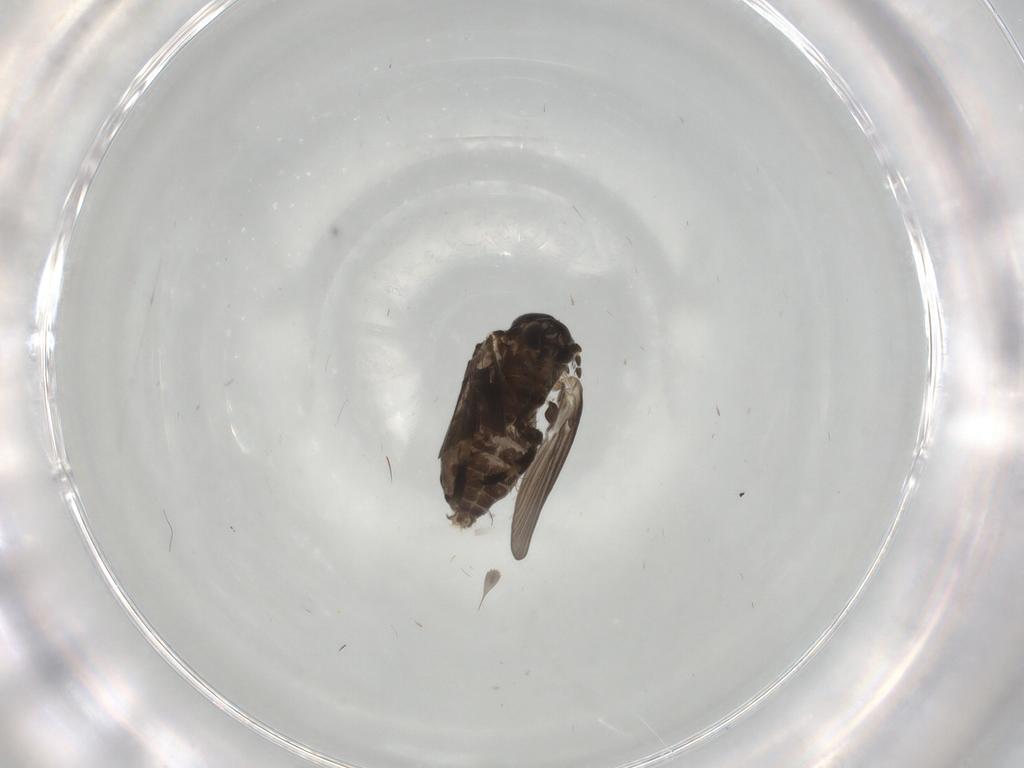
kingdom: Animalia
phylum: Arthropoda
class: Insecta
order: Diptera
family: Psychodidae
